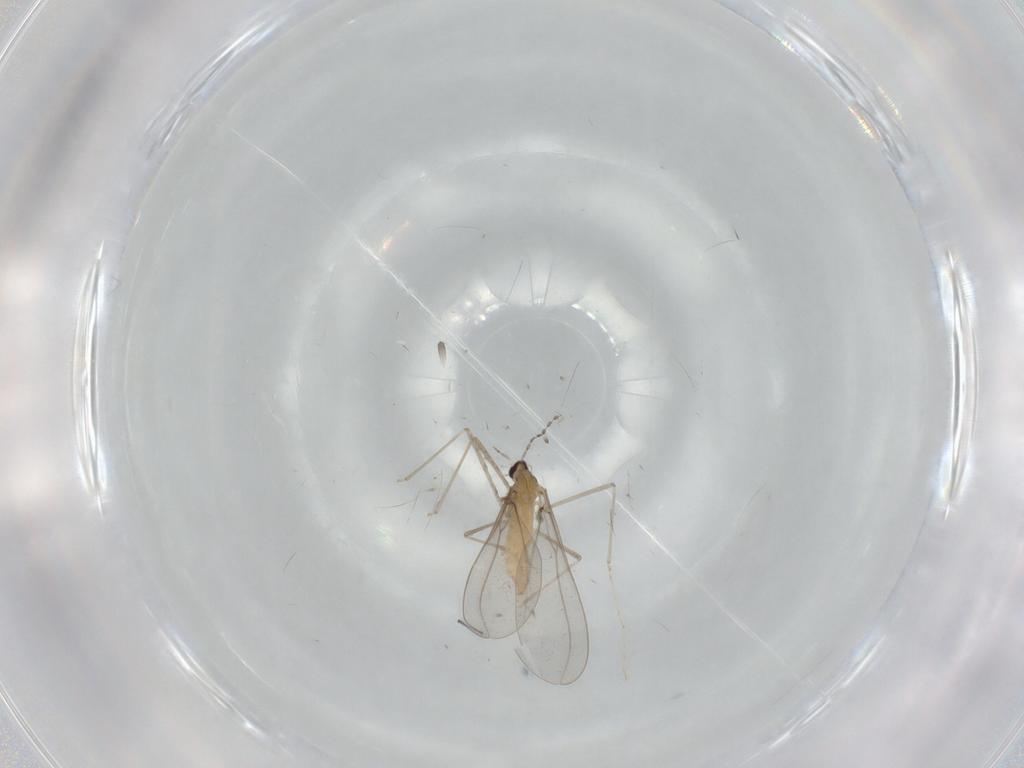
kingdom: Animalia
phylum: Arthropoda
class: Insecta
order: Diptera
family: Cecidomyiidae
